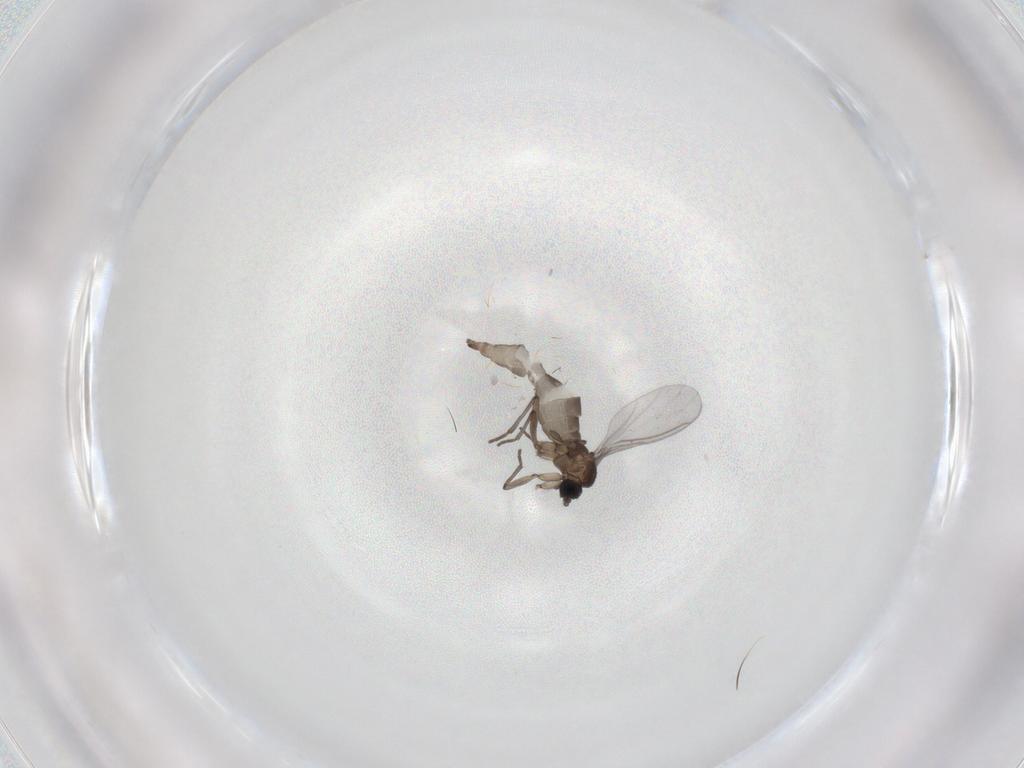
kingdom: Animalia
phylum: Arthropoda
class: Insecta
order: Diptera
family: Sciaridae
